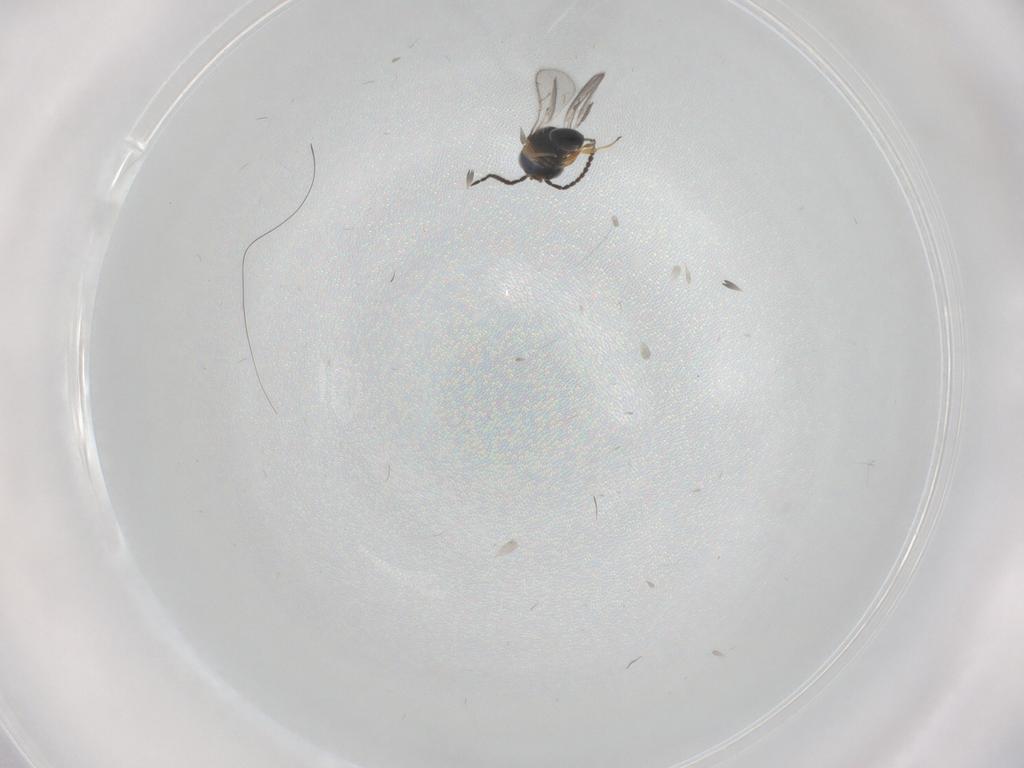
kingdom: Animalia
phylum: Arthropoda
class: Insecta
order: Hymenoptera
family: Scelionidae
